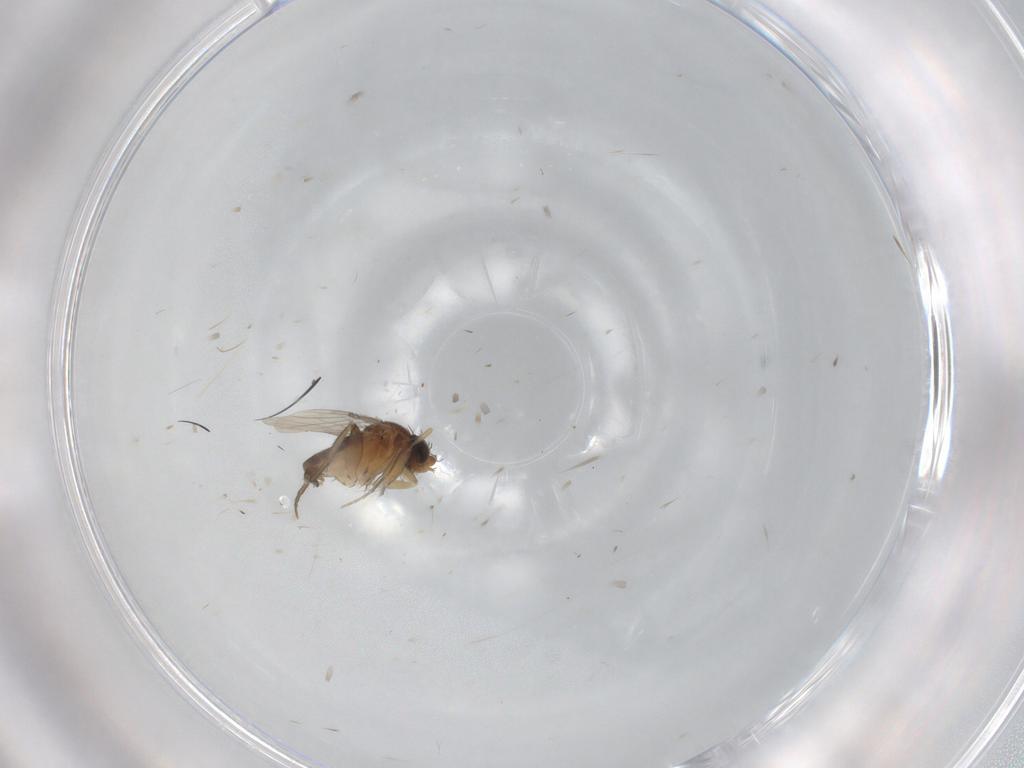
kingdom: Animalia
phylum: Arthropoda
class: Insecta
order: Diptera
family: Phoridae
